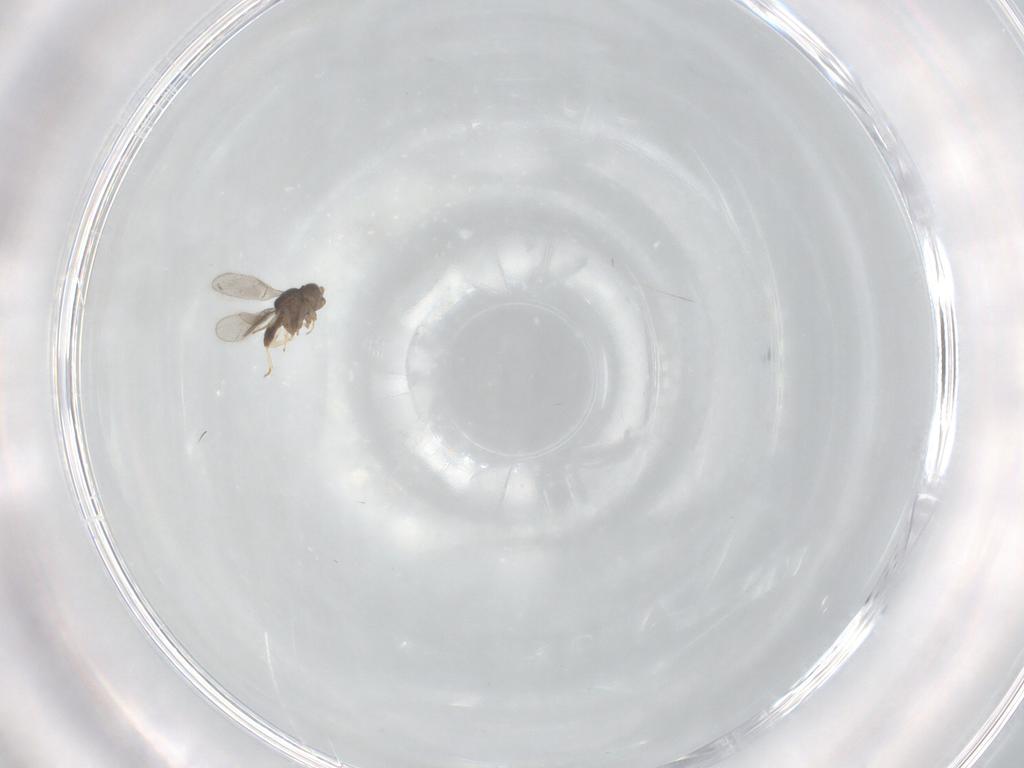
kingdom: Animalia
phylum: Arthropoda
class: Insecta
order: Hymenoptera
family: Scelionidae
